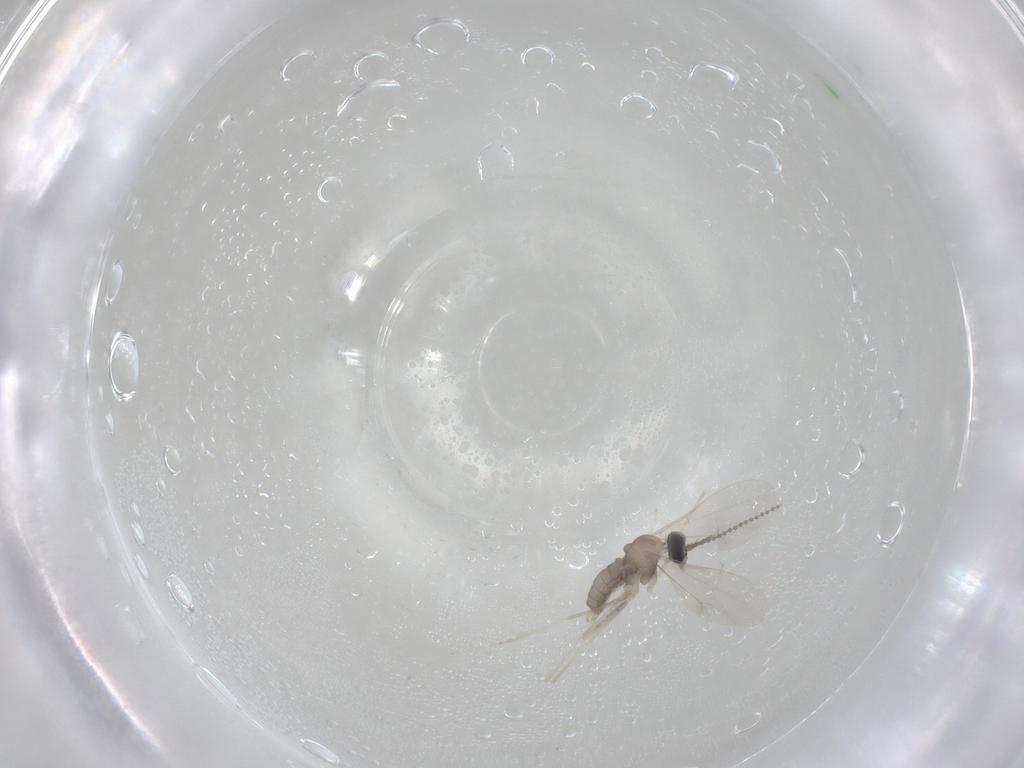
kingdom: Animalia
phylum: Arthropoda
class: Insecta
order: Diptera
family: Cecidomyiidae
